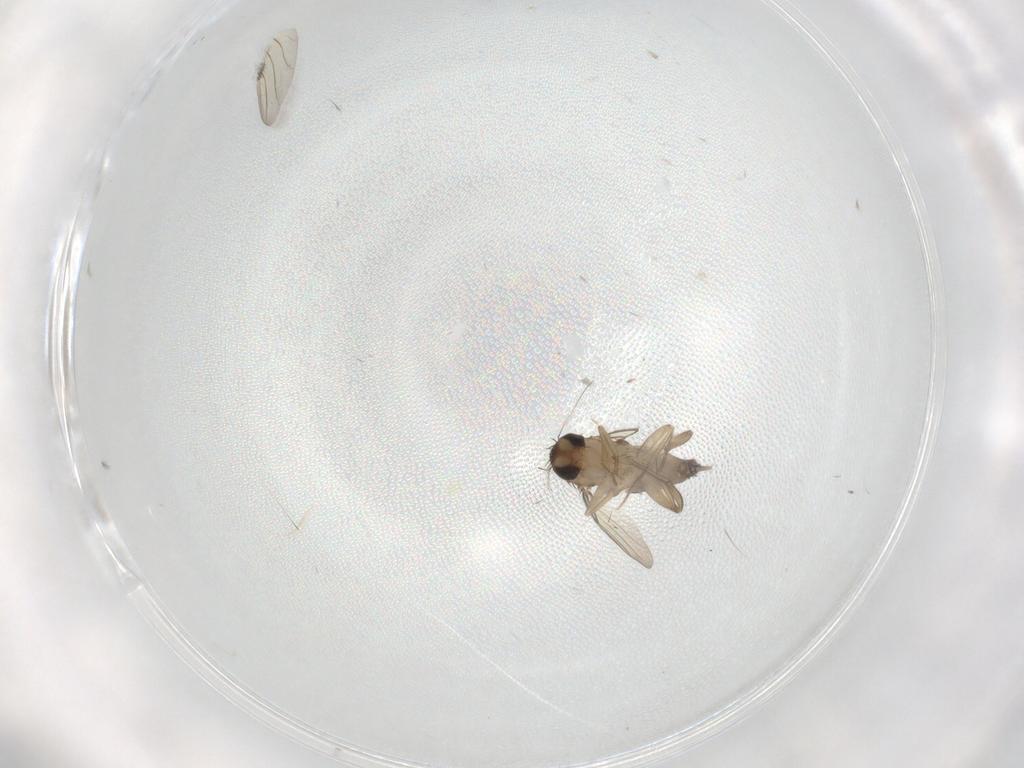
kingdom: Animalia
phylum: Arthropoda
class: Insecta
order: Diptera
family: Phoridae
